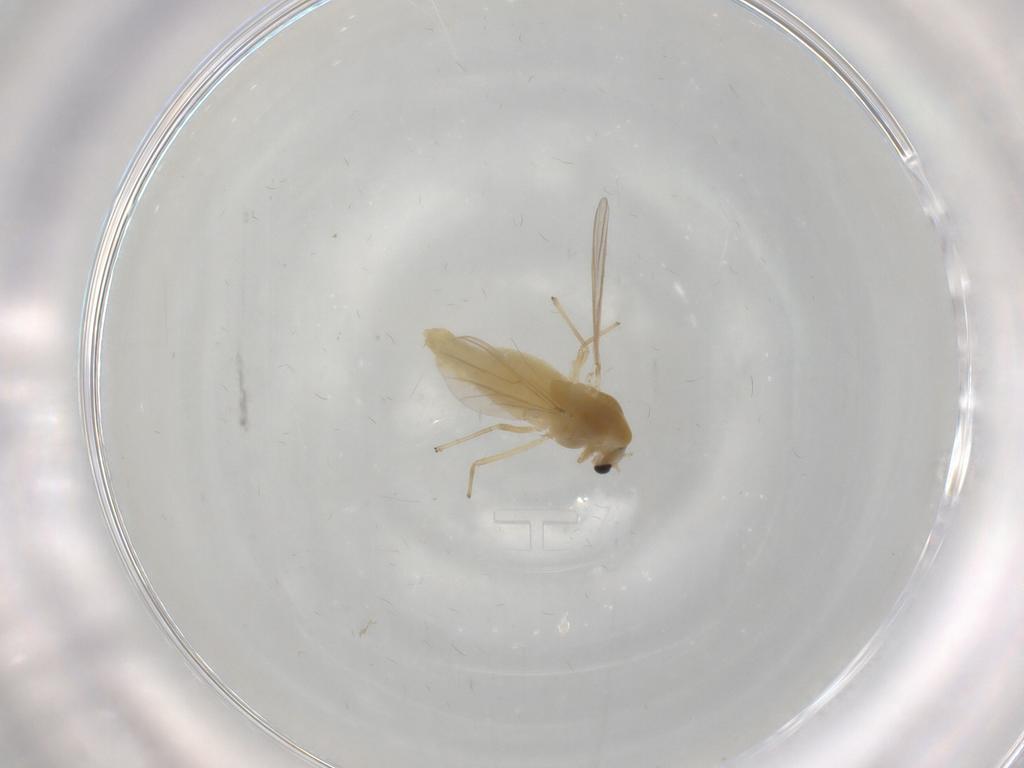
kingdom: Animalia
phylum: Arthropoda
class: Insecta
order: Diptera
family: Chironomidae
